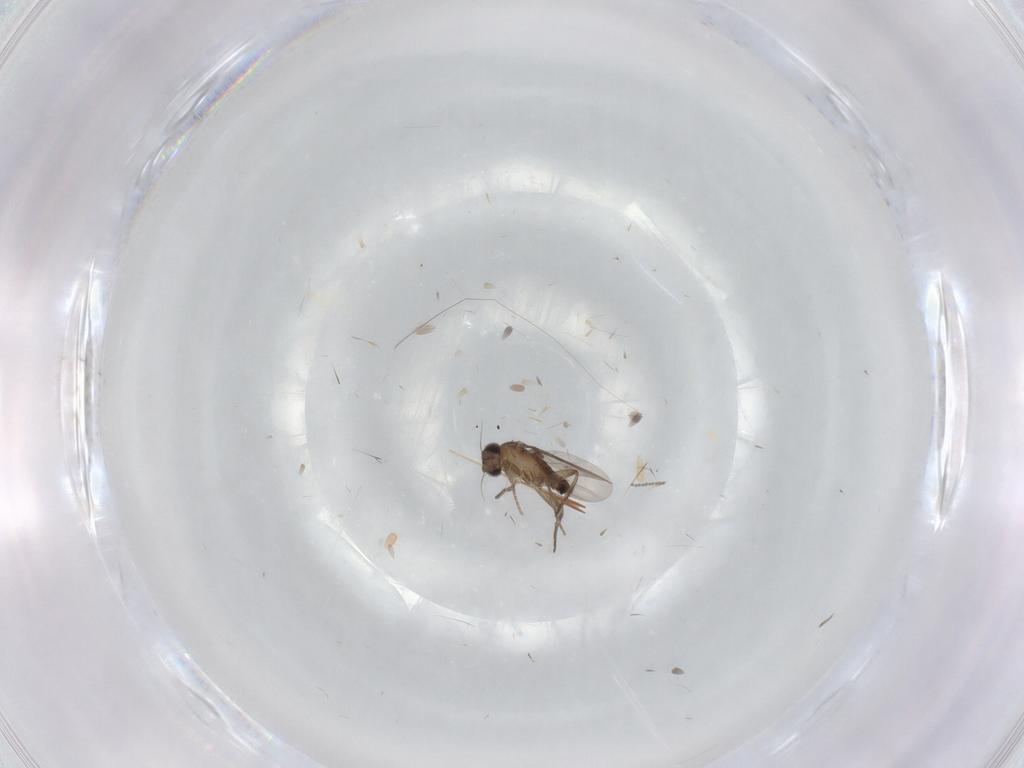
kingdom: Animalia
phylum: Arthropoda
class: Insecta
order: Diptera
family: Phoridae
